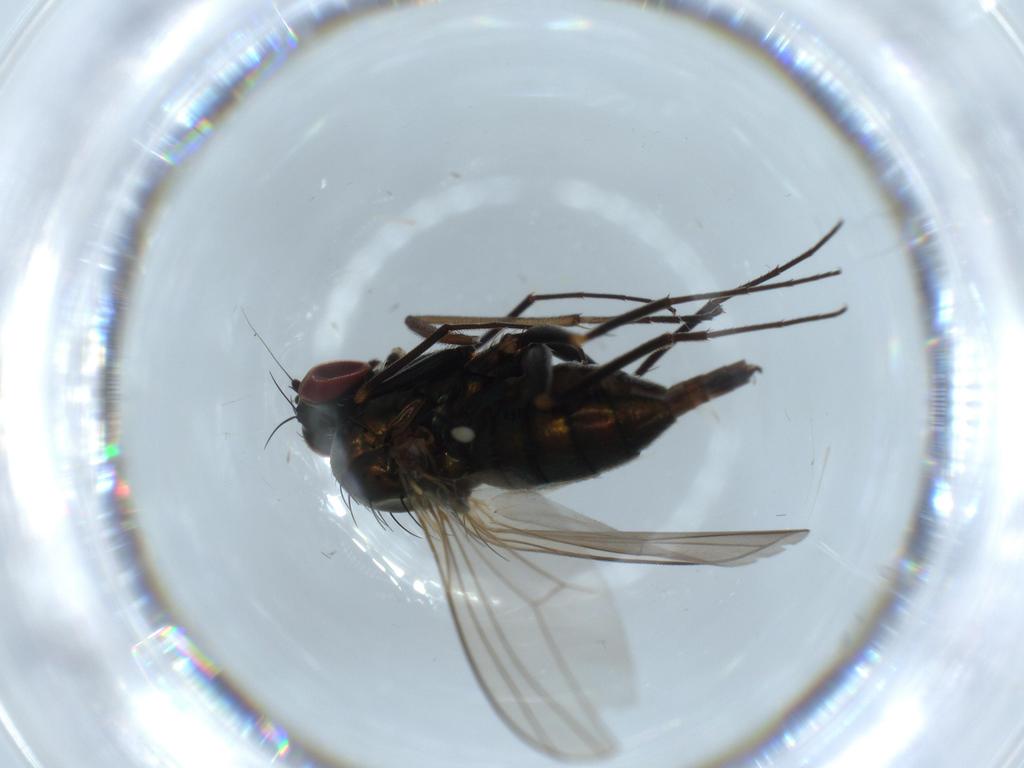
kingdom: Animalia
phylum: Arthropoda
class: Insecta
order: Diptera
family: Dolichopodidae
